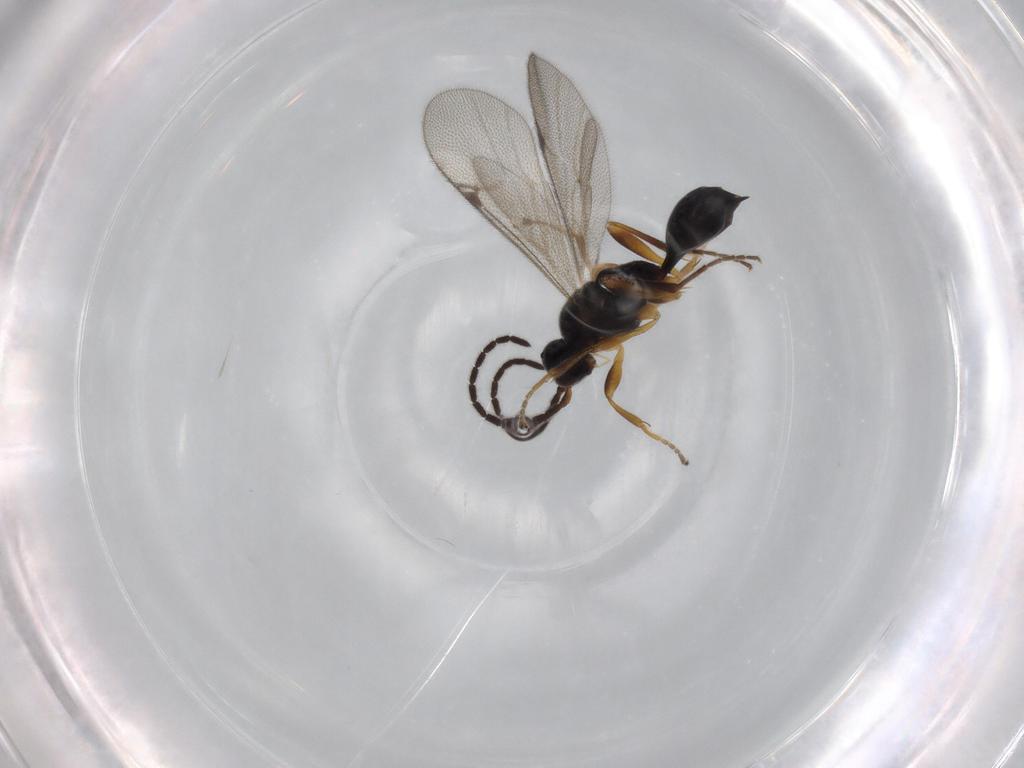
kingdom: Animalia
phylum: Arthropoda
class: Insecta
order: Hymenoptera
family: Proctotrupidae
